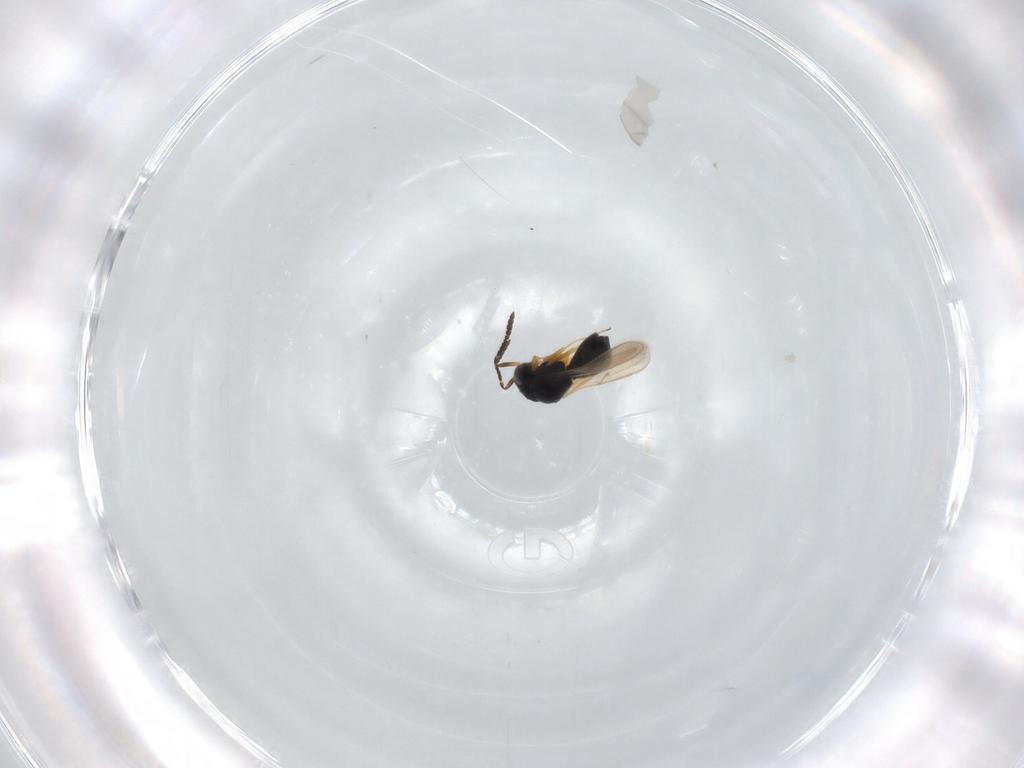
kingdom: Animalia
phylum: Arthropoda
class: Insecta
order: Hymenoptera
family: Scelionidae
